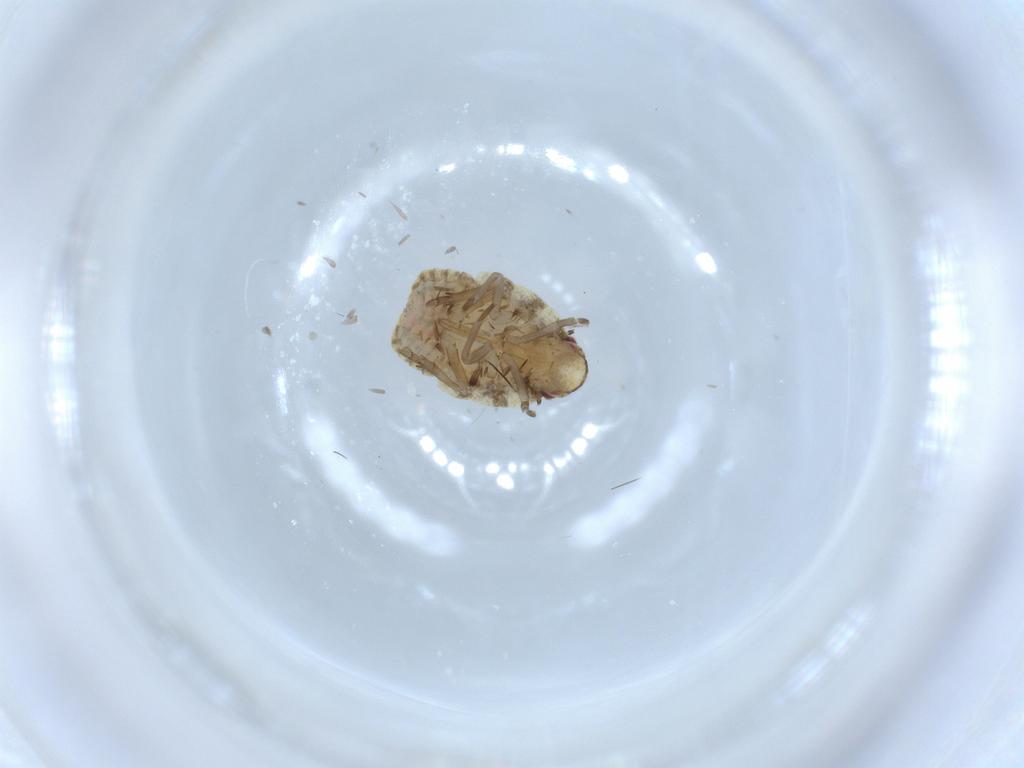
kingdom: Animalia
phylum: Arthropoda
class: Insecta
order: Hemiptera
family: Flatidae
